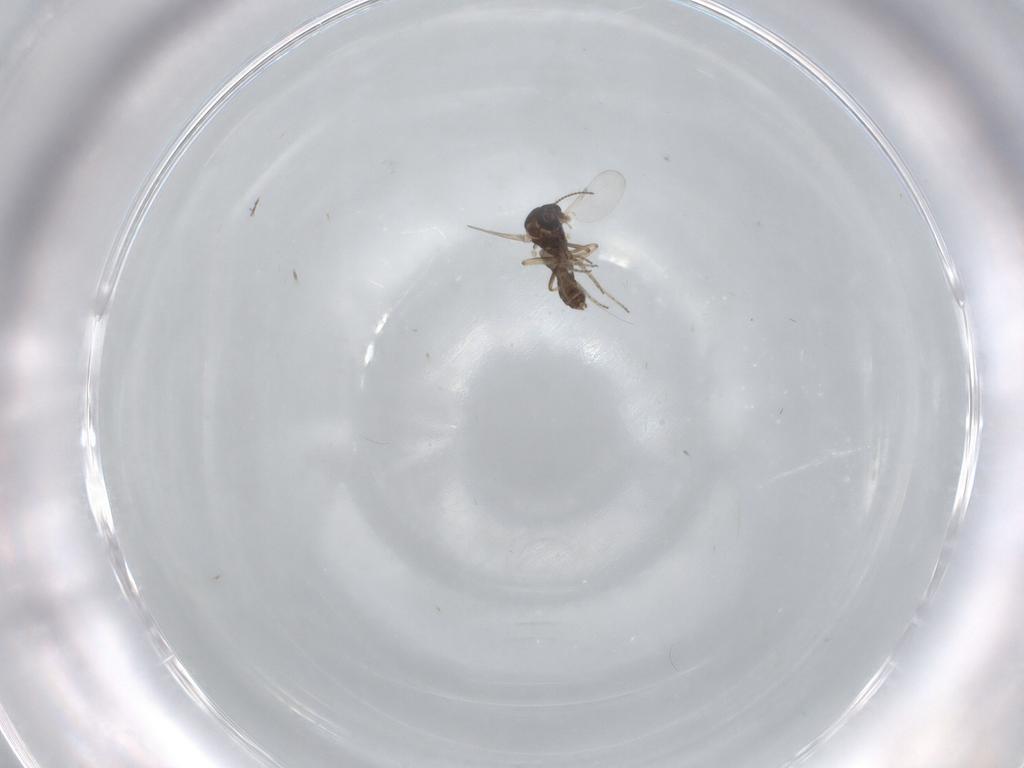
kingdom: Animalia
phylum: Arthropoda
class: Insecta
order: Diptera
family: Ceratopogonidae
